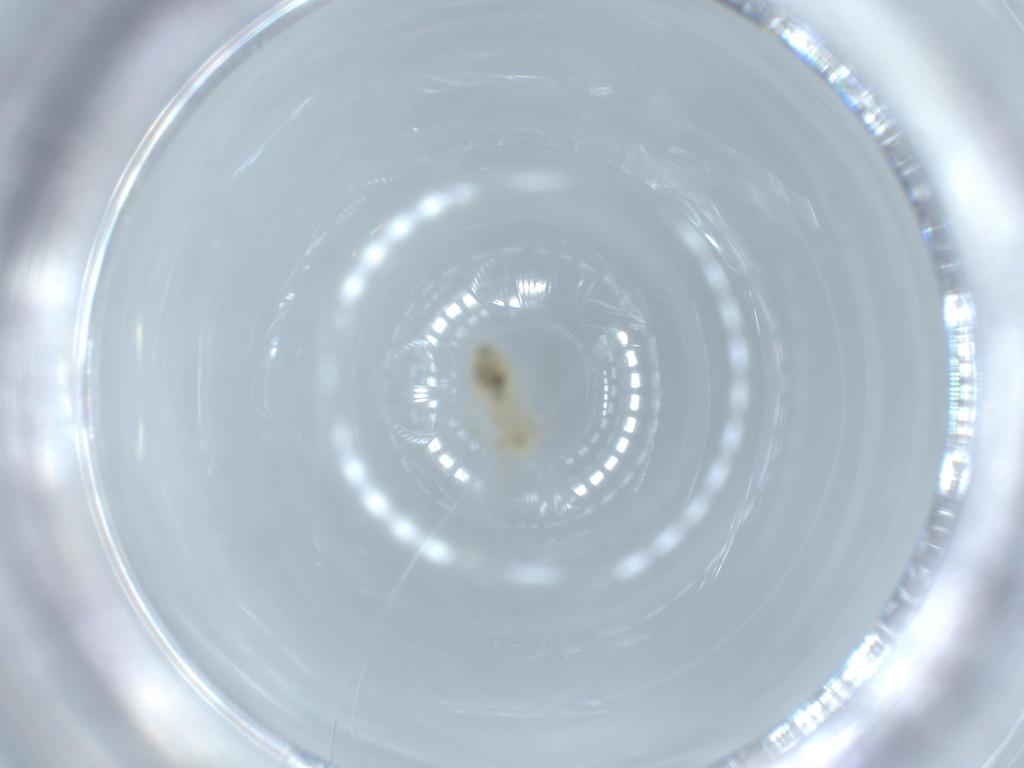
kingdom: Animalia
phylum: Arthropoda
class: Insecta
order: Psocodea
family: Caeciliusidae
